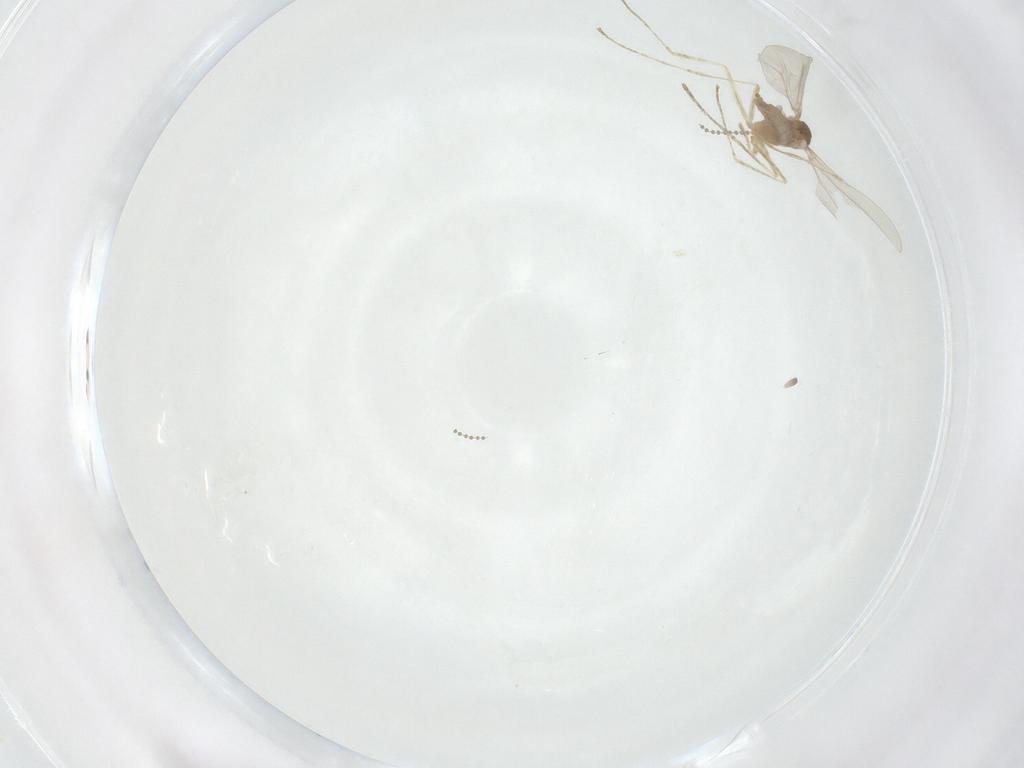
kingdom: Animalia
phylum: Arthropoda
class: Insecta
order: Diptera
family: Cecidomyiidae
